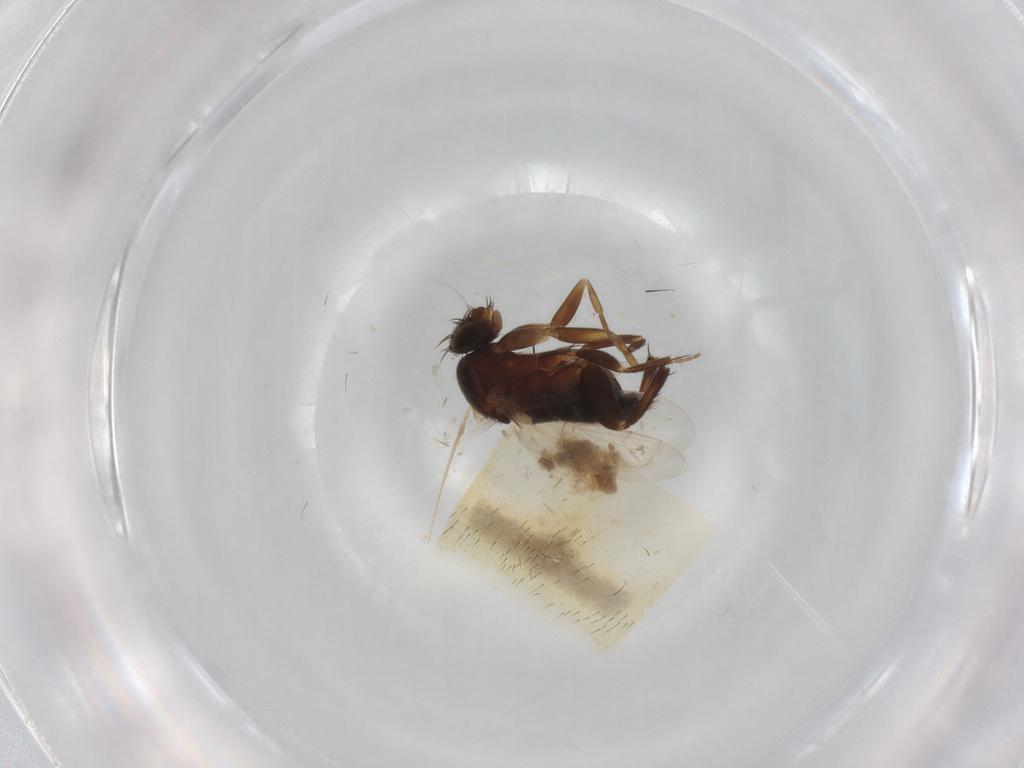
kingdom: Animalia
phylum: Arthropoda
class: Insecta
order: Diptera
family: Phoridae
